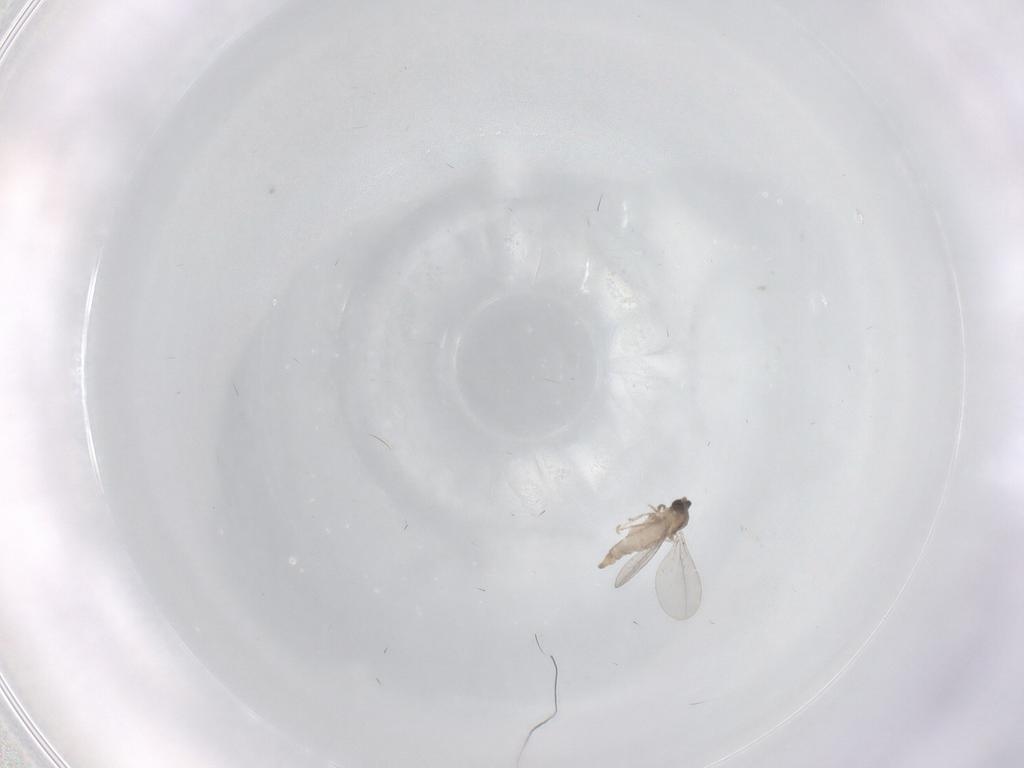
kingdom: Animalia
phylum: Arthropoda
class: Insecta
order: Diptera
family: Cecidomyiidae
